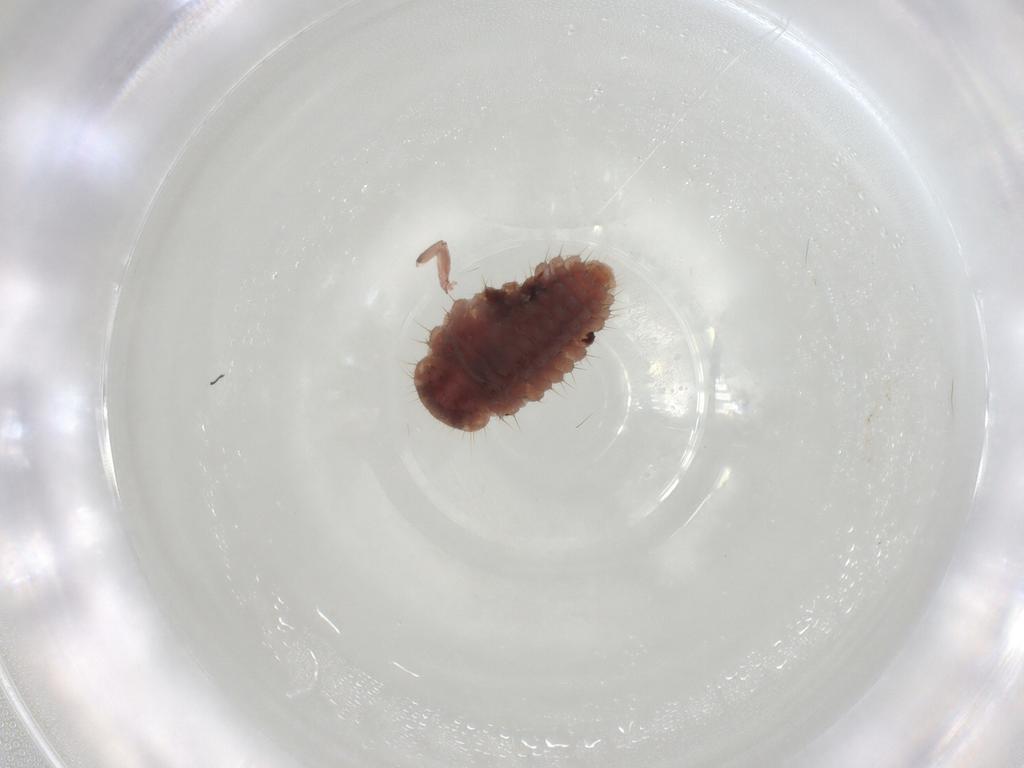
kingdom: Animalia
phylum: Arthropoda
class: Insecta
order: Coleoptera
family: Coccinellidae
